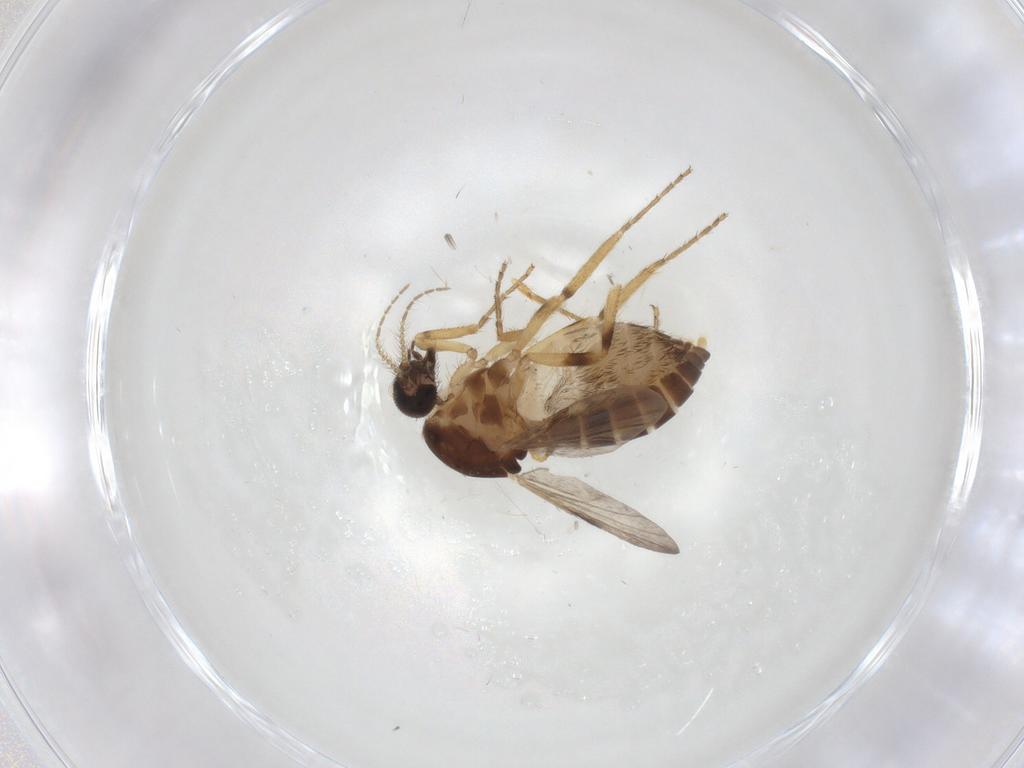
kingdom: Animalia
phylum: Arthropoda
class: Insecta
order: Diptera
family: Ceratopogonidae
